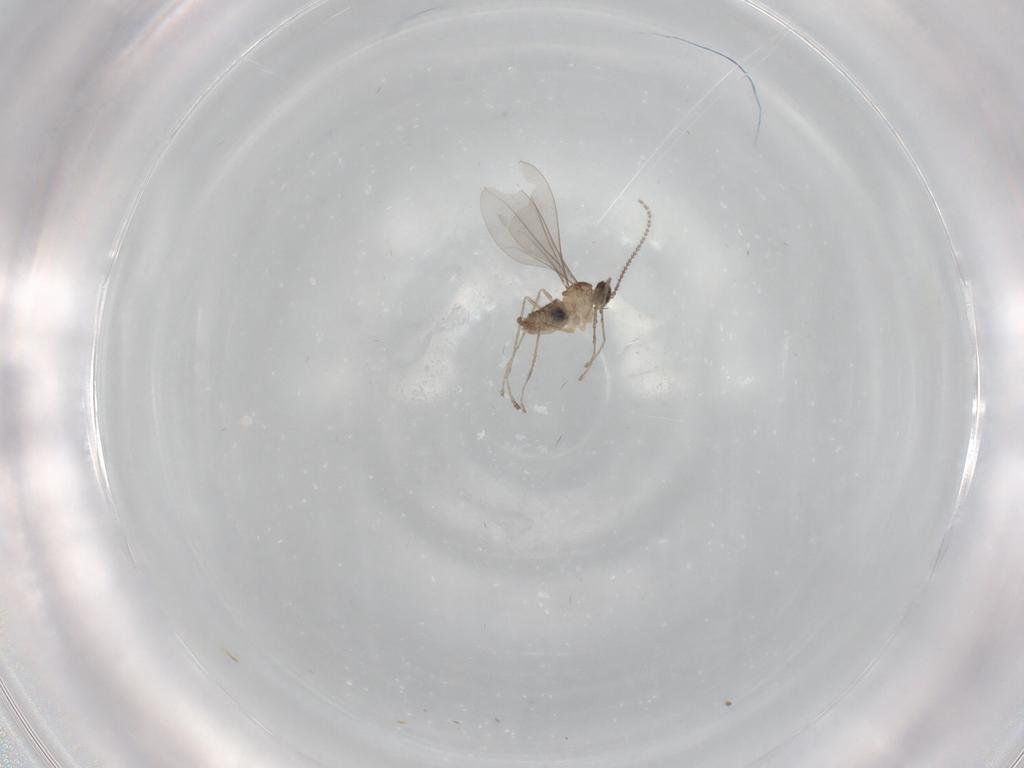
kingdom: Animalia
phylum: Arthropoda
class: Insecta
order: Diptera
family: Cecidomyiidae
